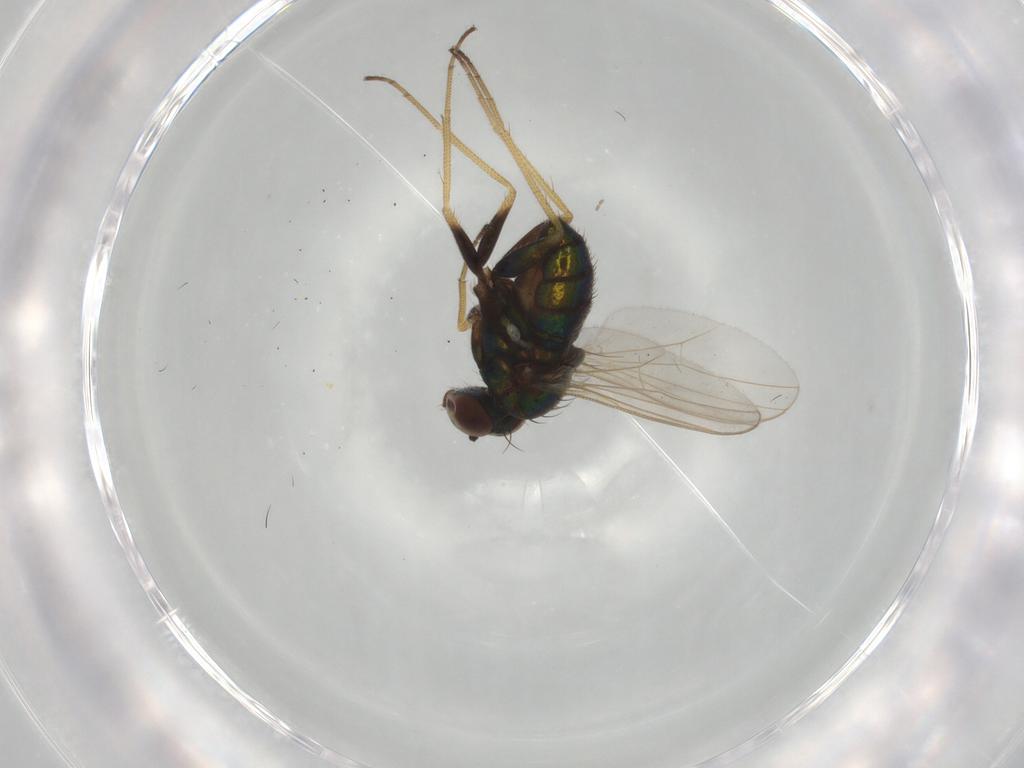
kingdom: Animalia
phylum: Arthropoda
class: Insecta
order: Diptera
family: Dolichopodidae
